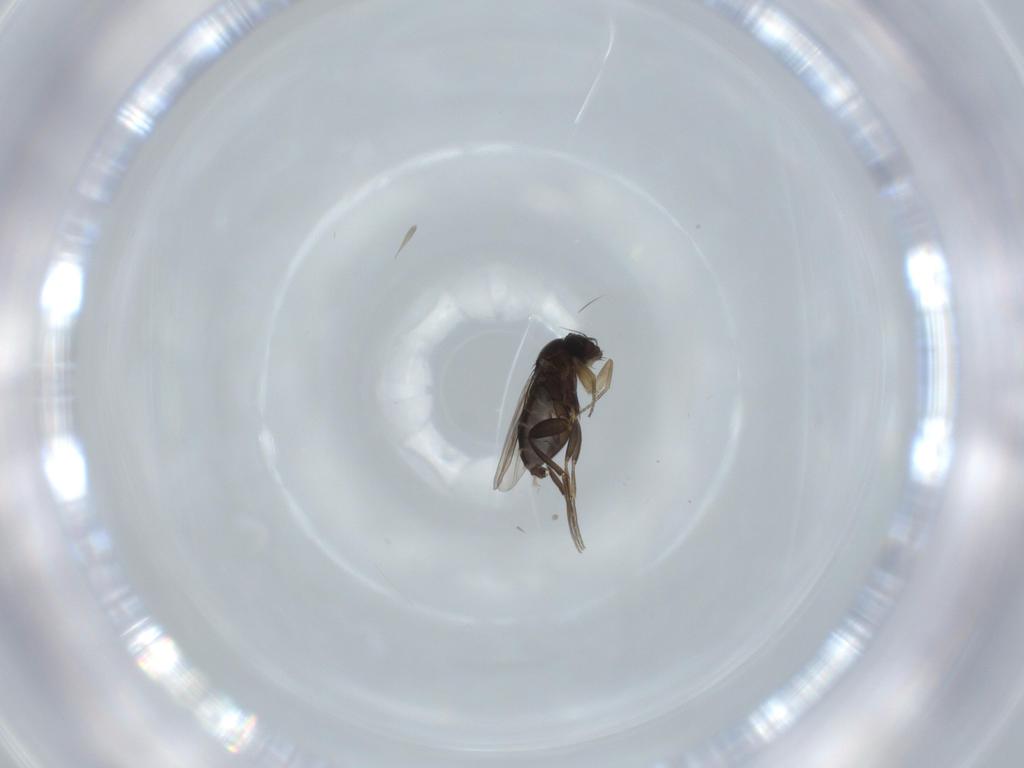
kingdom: Animalia
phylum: Arthropoda
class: Insecta
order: Diptera
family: Phoridae
